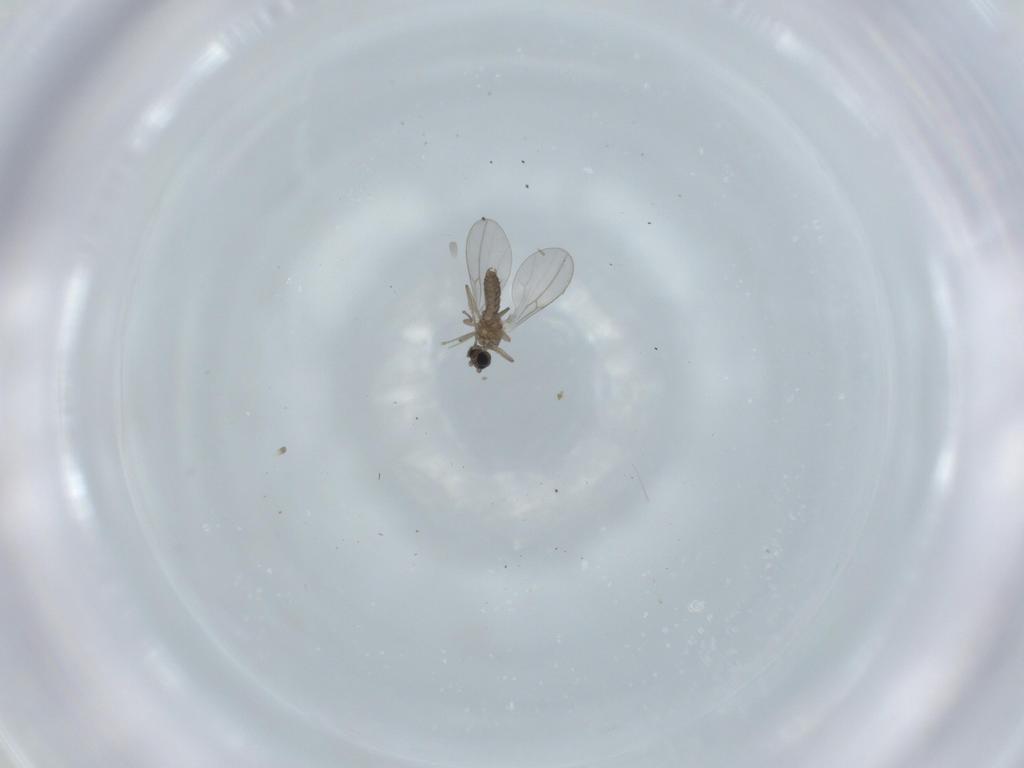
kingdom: Animalia
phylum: Arthropoda
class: Insecta
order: Diptera
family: Cecidomyiidae
